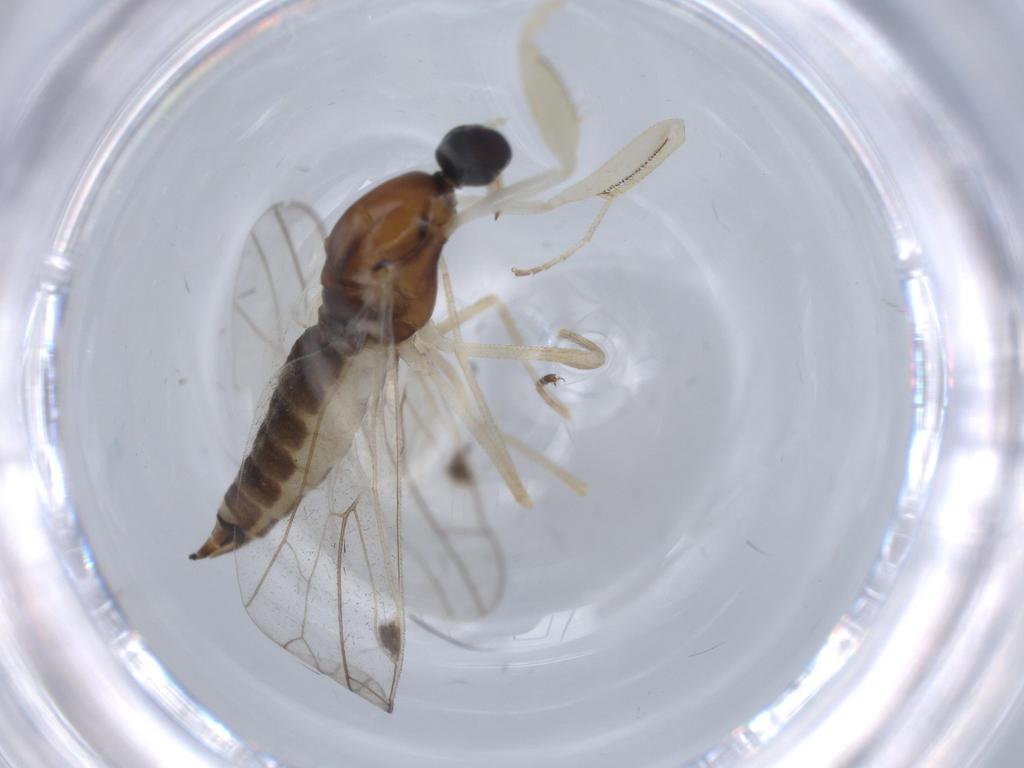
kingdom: Animalia
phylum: Arthropoda
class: Insecta
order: Diptera
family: Empididae
